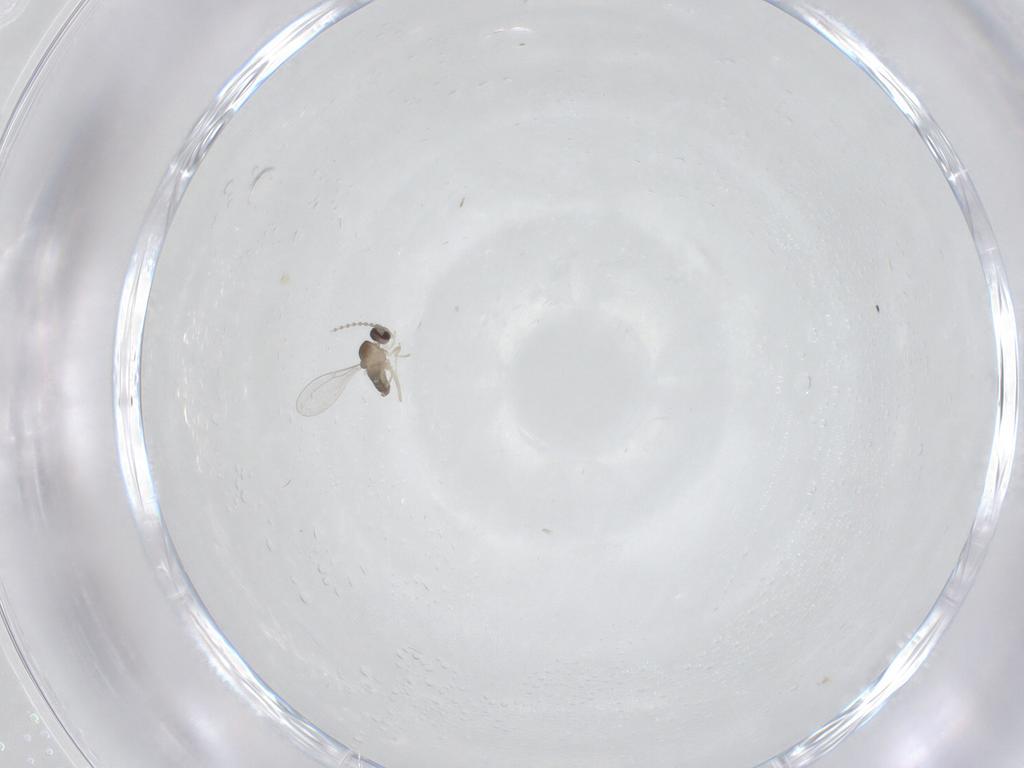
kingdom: Animalia
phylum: Arthropoda
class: Insecta
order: Diptera
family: Cecidomyiidae
